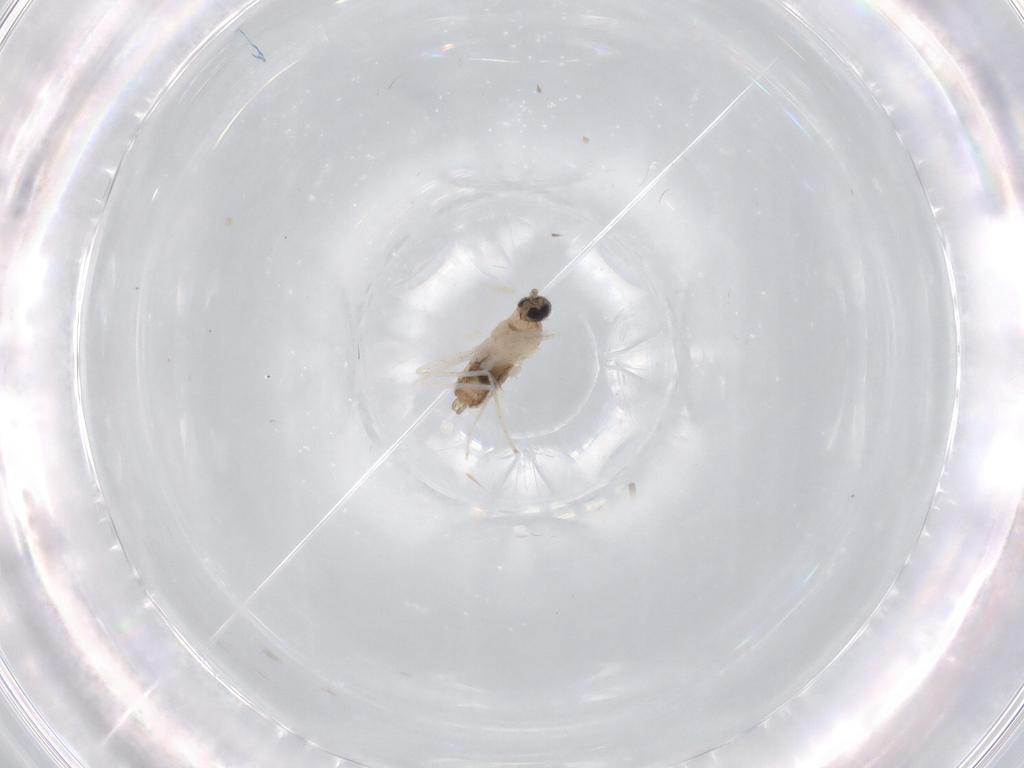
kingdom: Animalia
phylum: Arthropoda
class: Insecta
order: Diptera
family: Cecidomyiidae
